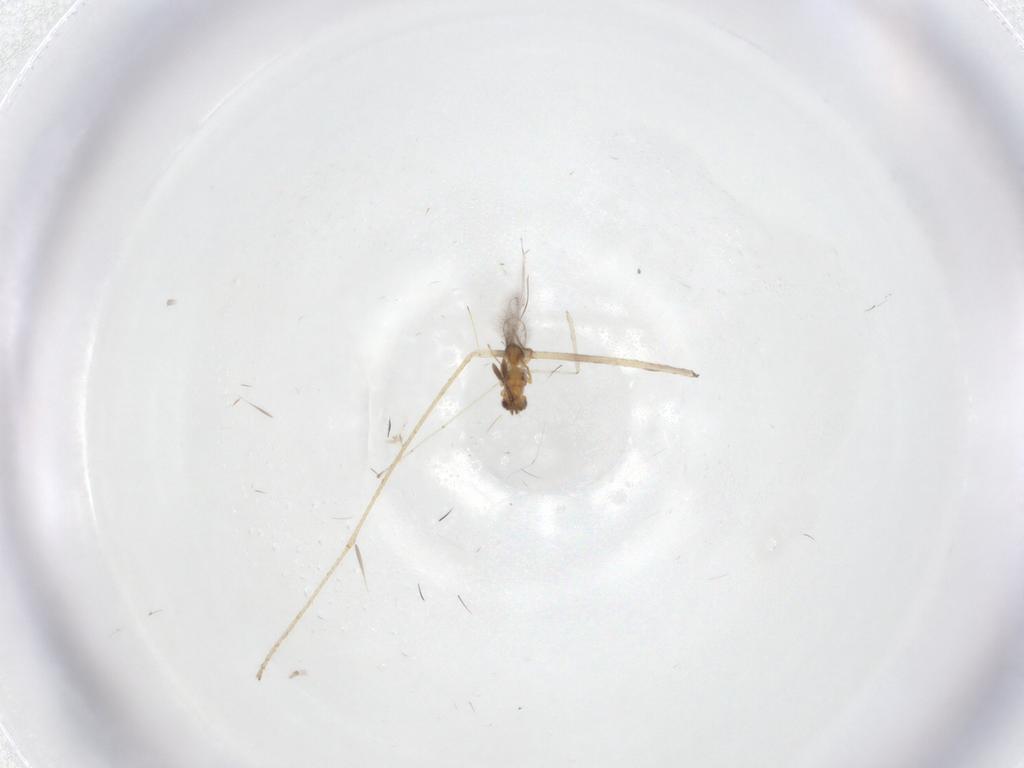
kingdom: Animalia
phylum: Arthropoda
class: Insecta
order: Diptera
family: Limoniidae
